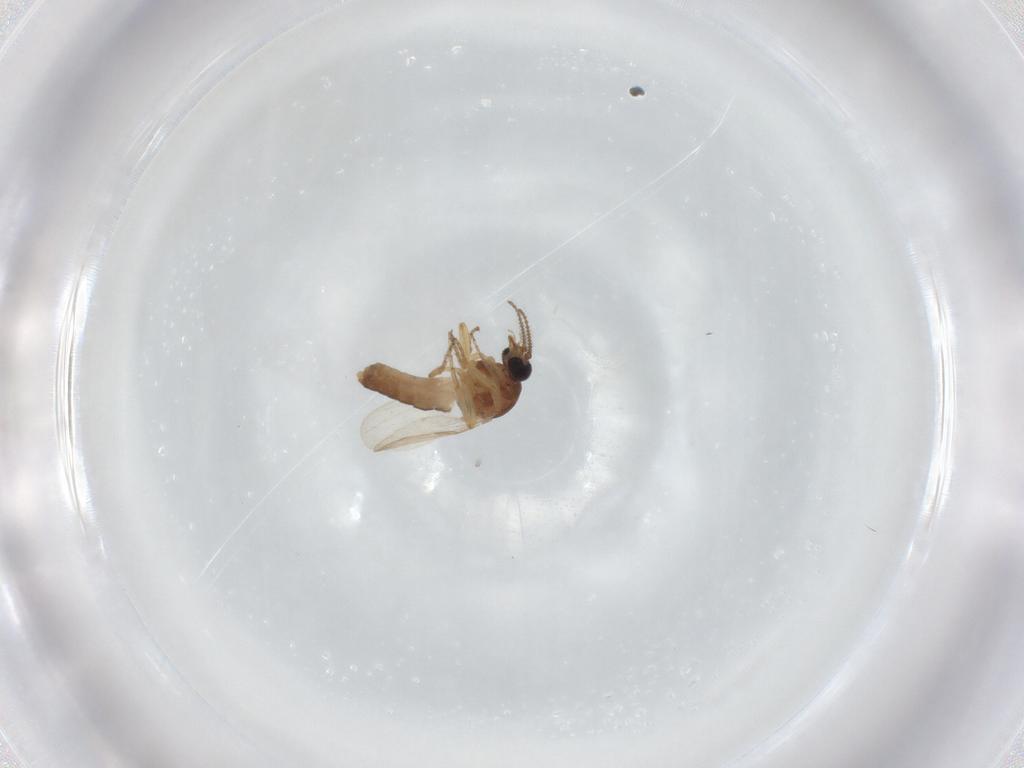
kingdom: Animalia
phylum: Arthropoda
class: Insecta
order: Diptera
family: Ceratopogonidae
